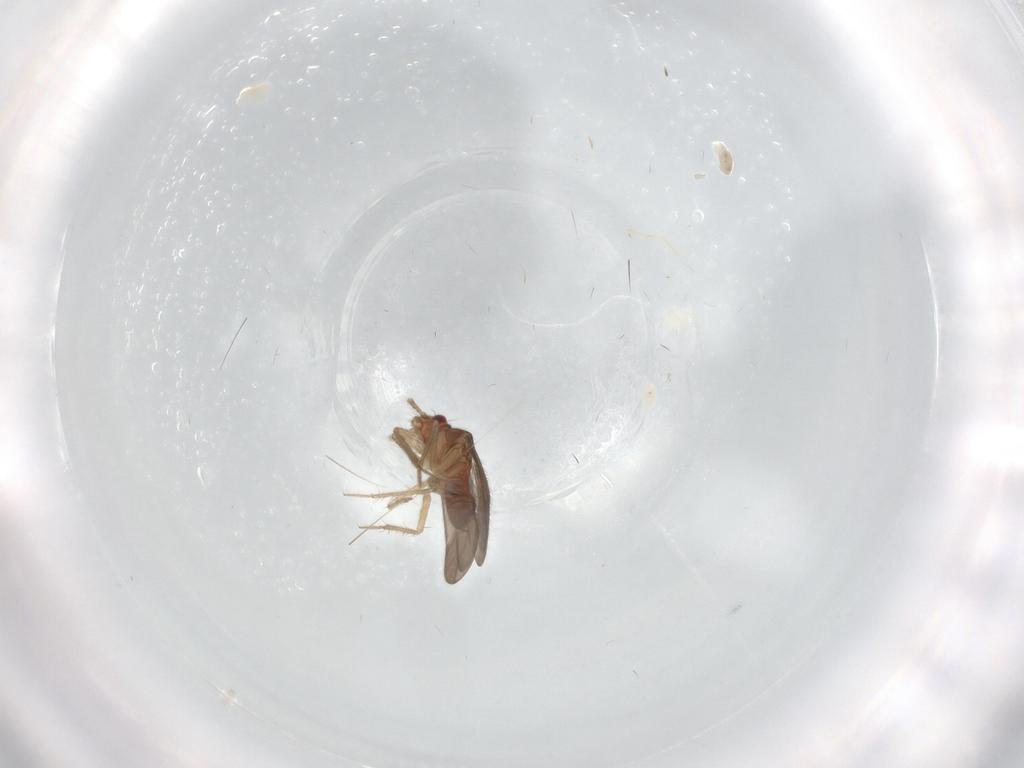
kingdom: Animalia
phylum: Arthropoda
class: Insecta
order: Hemiptera
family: Ceratocombidae
